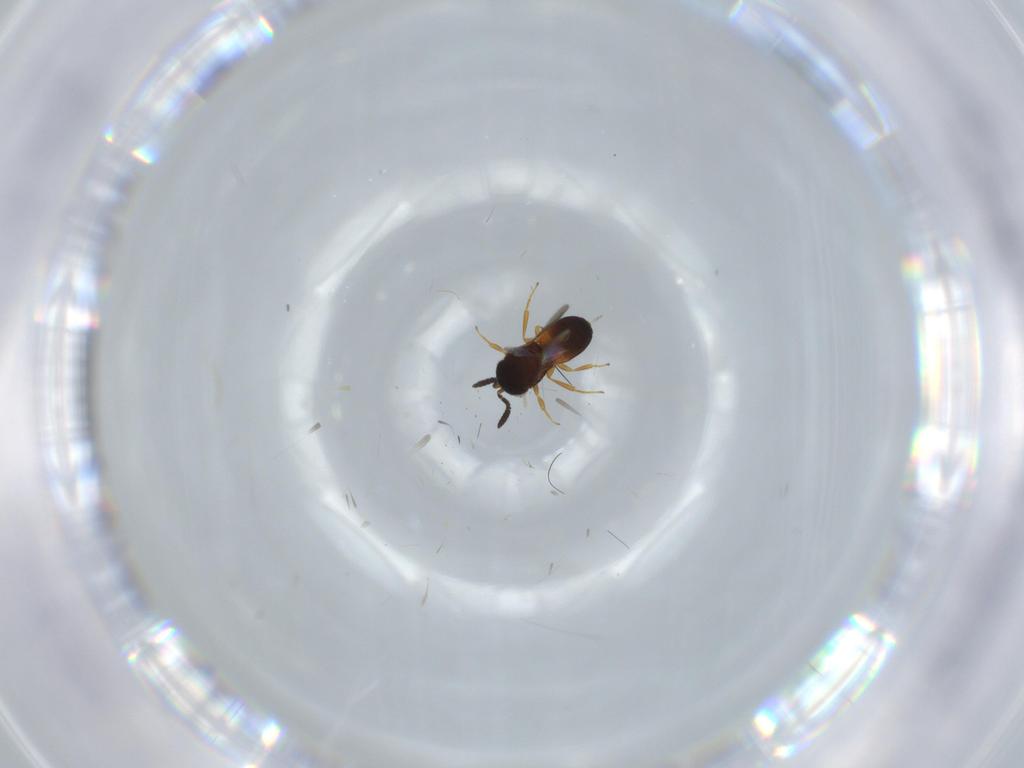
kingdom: Animalia
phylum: Arthropoda
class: Insecta
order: Hymenoptera
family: Scelionidae
